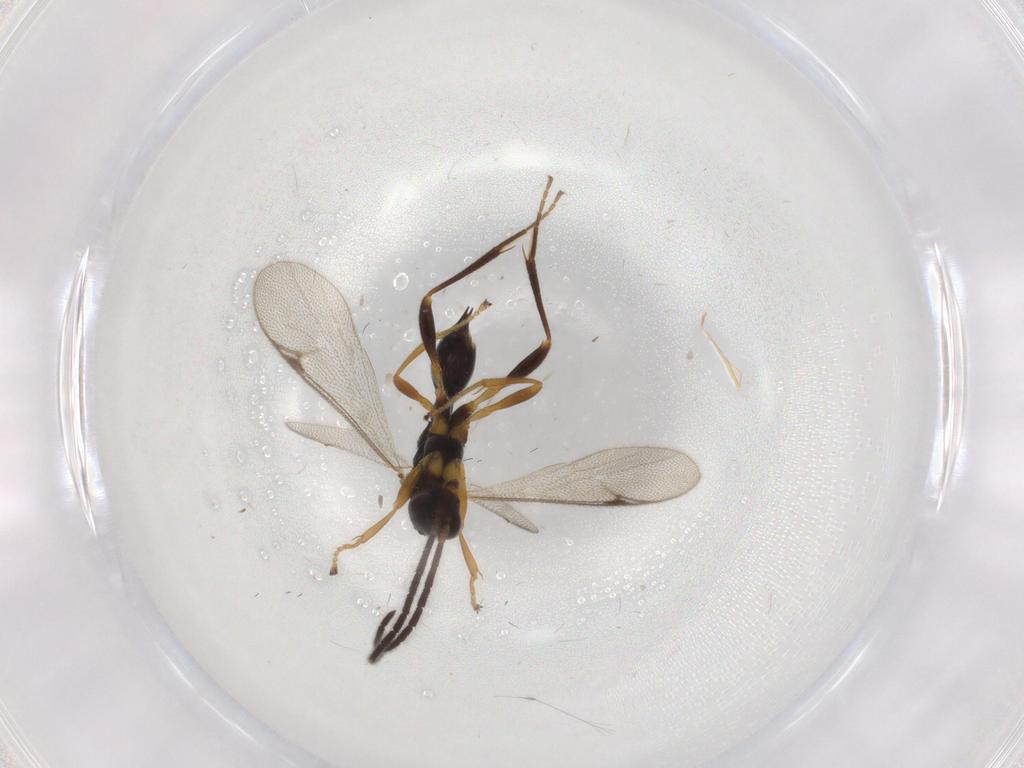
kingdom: Animalia
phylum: Arthropoda
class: Insecta
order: Hymenoptera
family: Proctotrupidae
